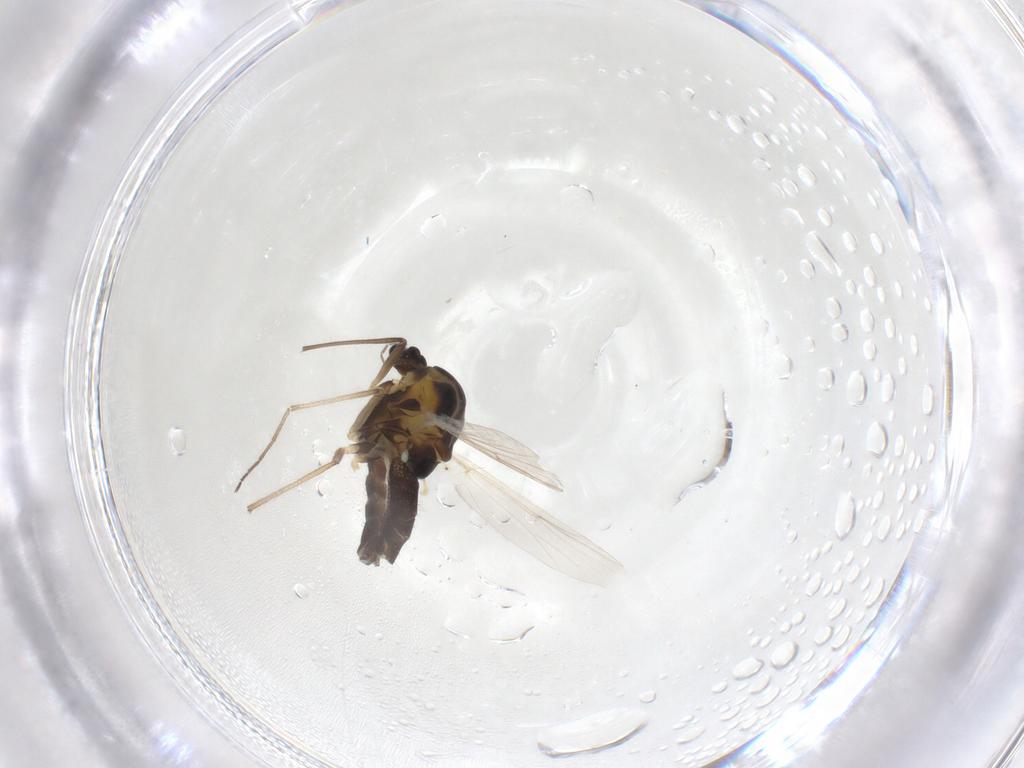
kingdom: Animalia
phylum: Arthropoda
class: Insecta
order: Diptera
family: Chironomidae
